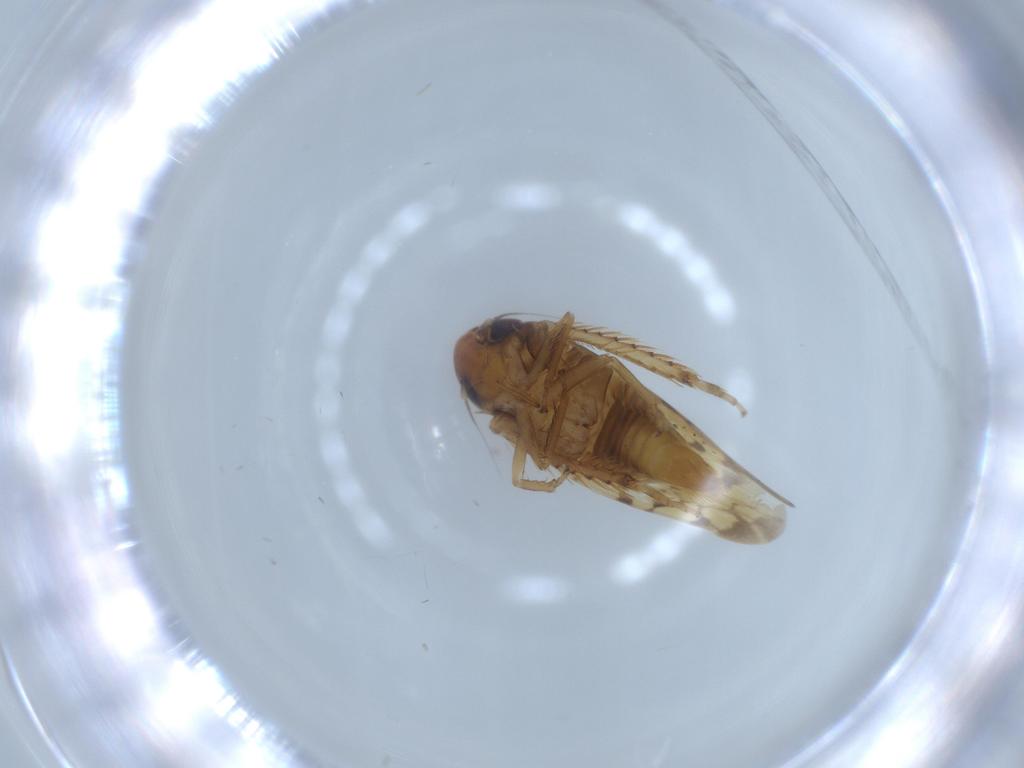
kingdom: Animalia
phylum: Arthropoda
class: Insecta
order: Hemiptera
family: Cicadellidae
